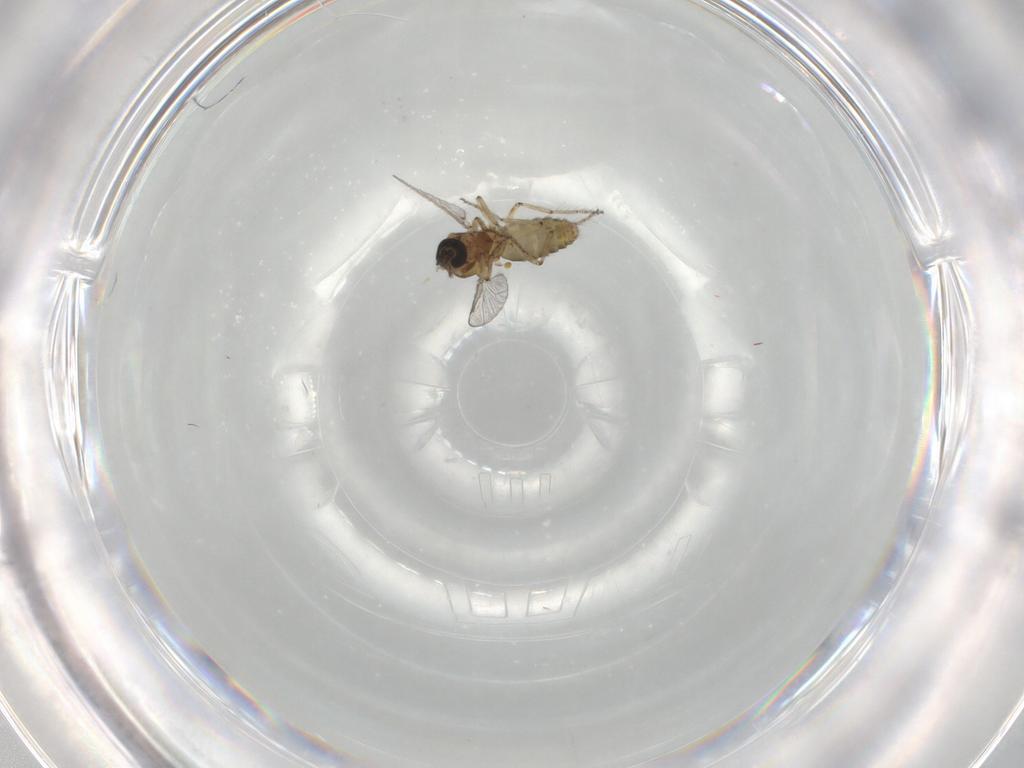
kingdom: Animalia
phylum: Arthropoda
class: Insecta
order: Diptera
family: Ceratopogonidae
